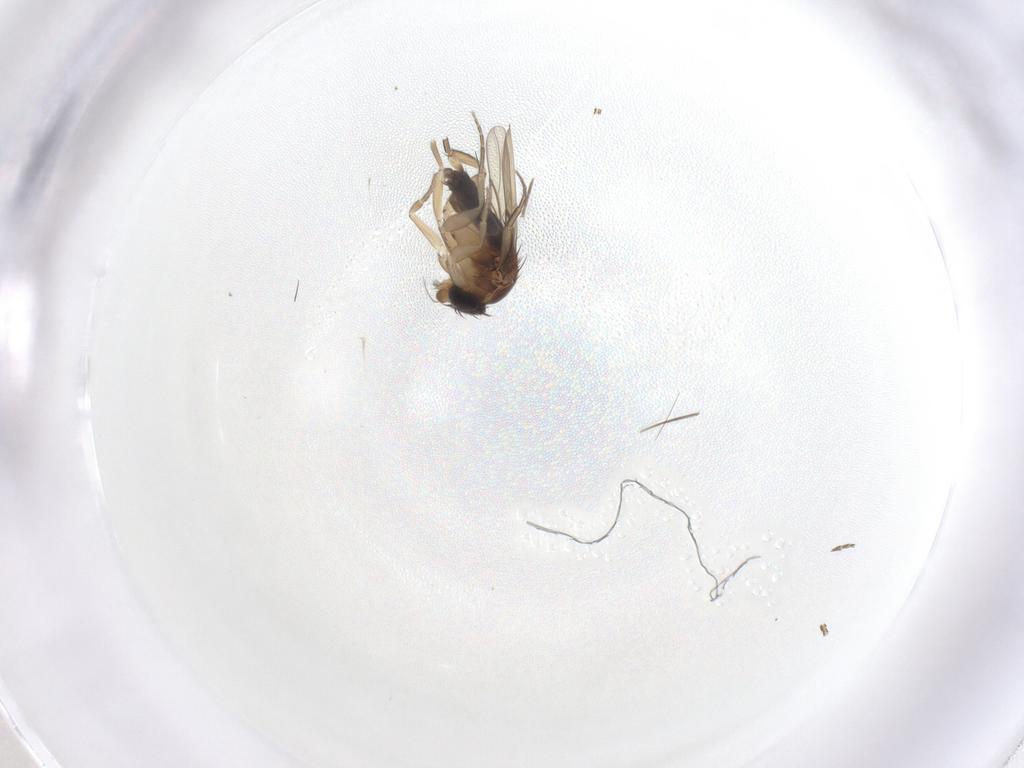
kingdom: Animalia
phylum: Arthropoda
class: Insecta
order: Diptera
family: Phoridae
